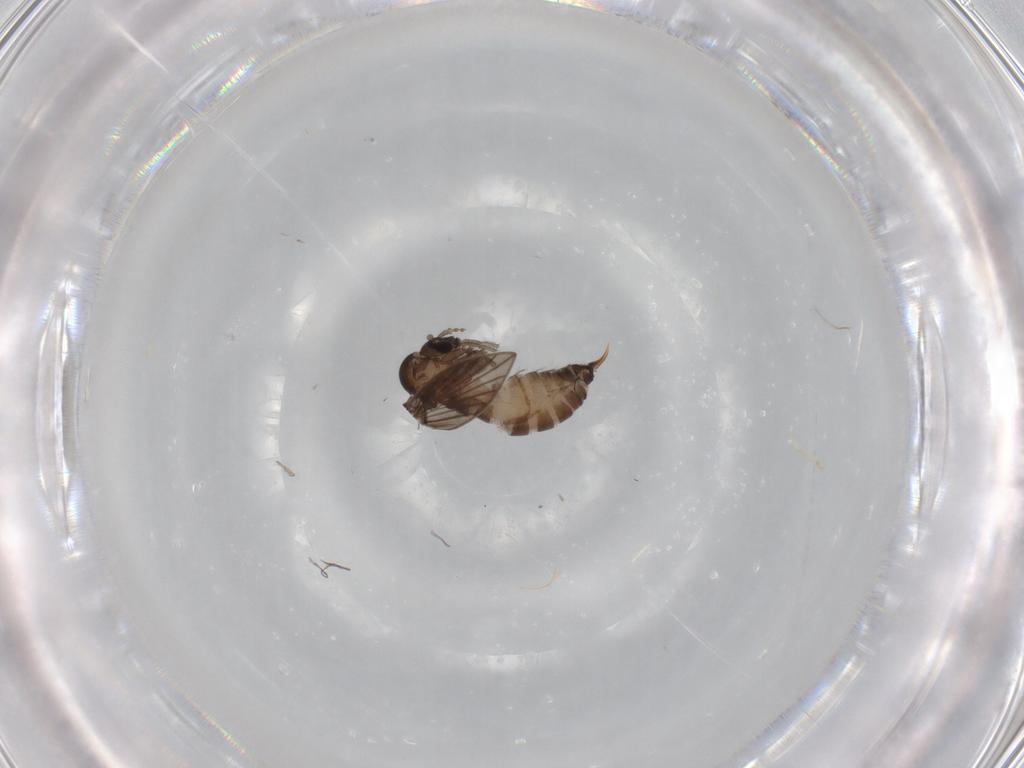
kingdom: Animalia
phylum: Arthropoda
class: Insecta
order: Diptera
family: Psychodidae
